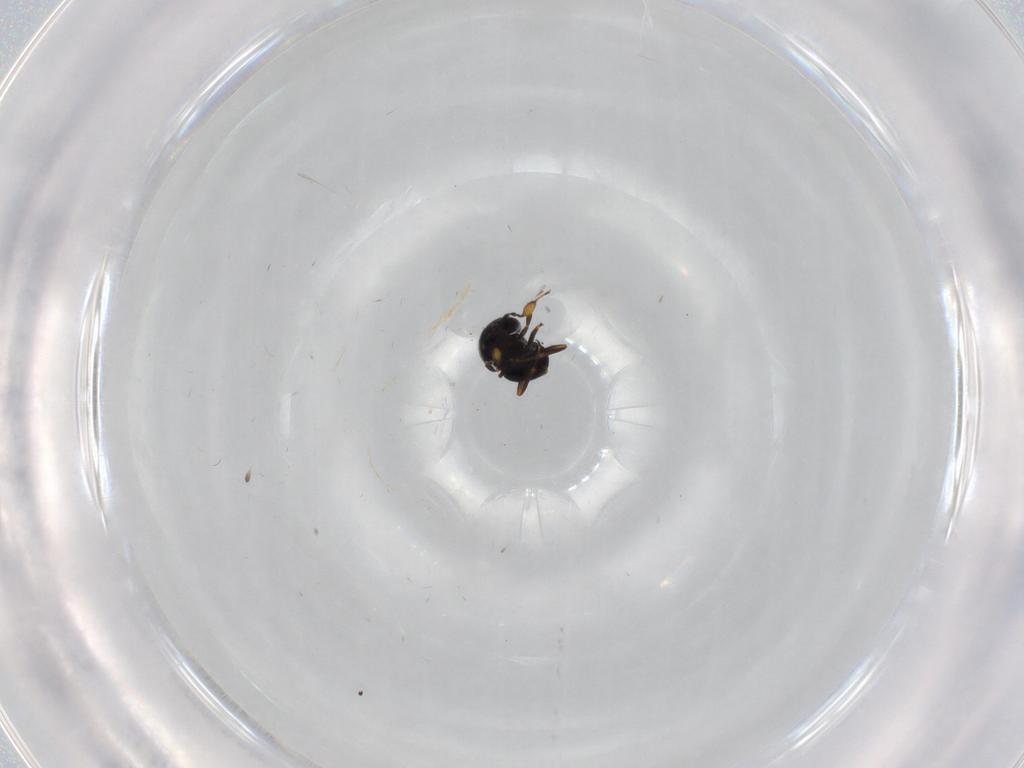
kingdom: Animalia
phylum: Arthropoda
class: Insecta
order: Hymenoptera
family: Scelionidae
